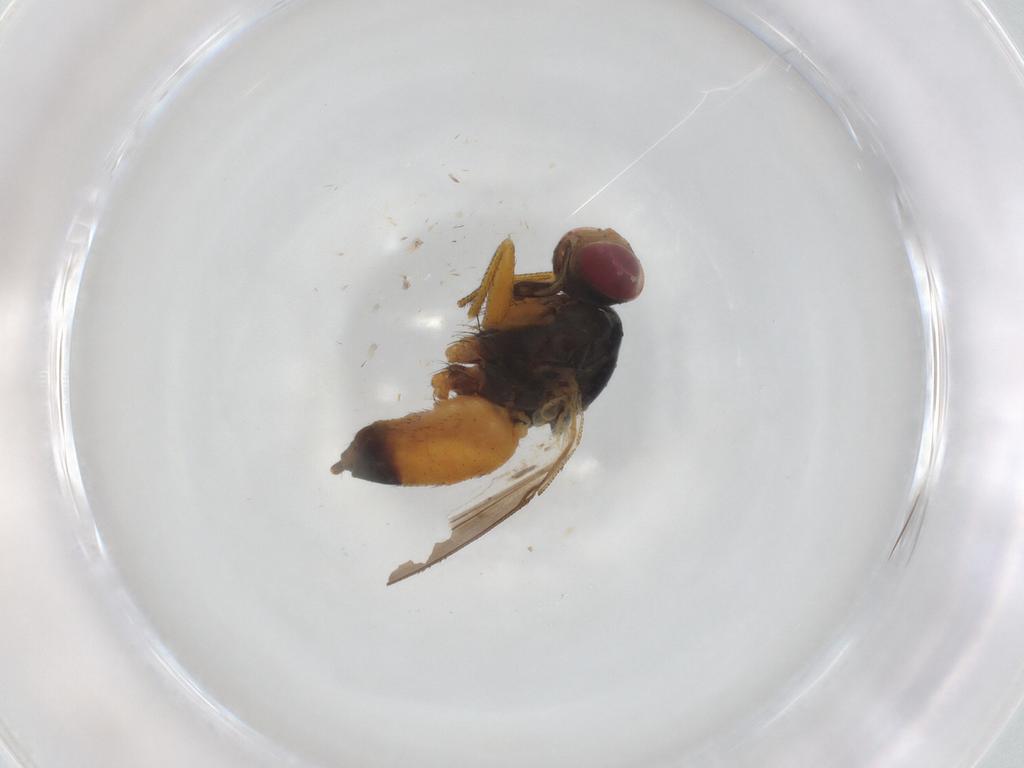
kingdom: Animalia
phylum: Arthropoda
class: Insecta
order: Diptera
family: Muscidae
